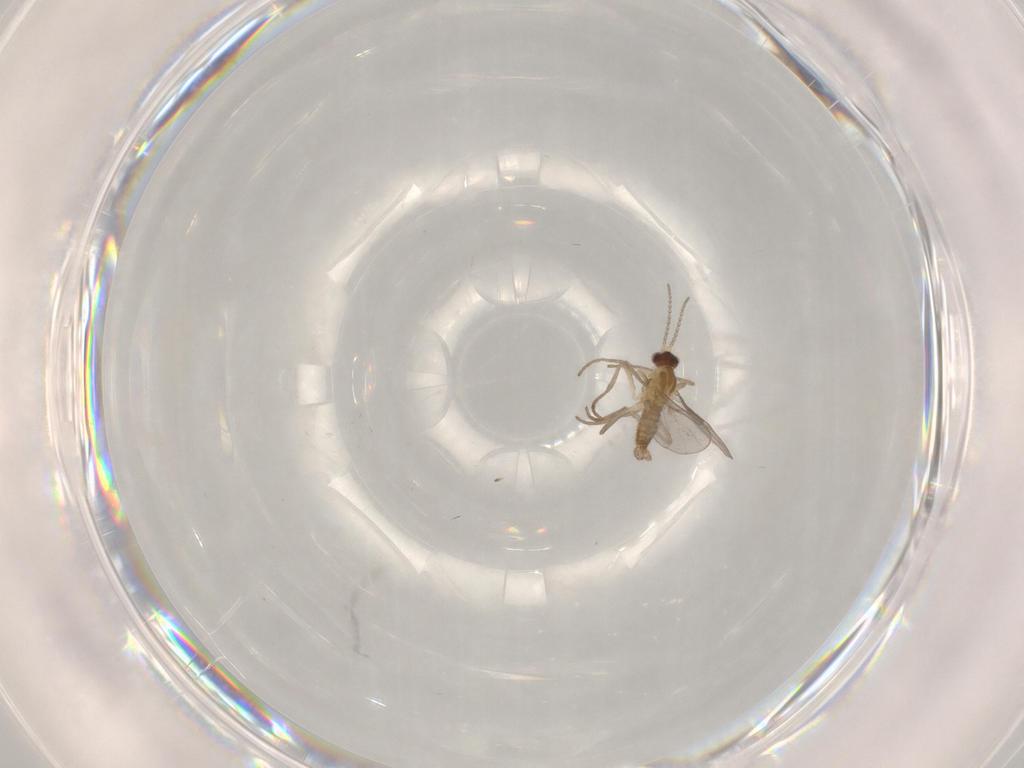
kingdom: Animalia
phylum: Arthropoda
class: Insecta
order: Diptera
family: Cecidomyiidae
